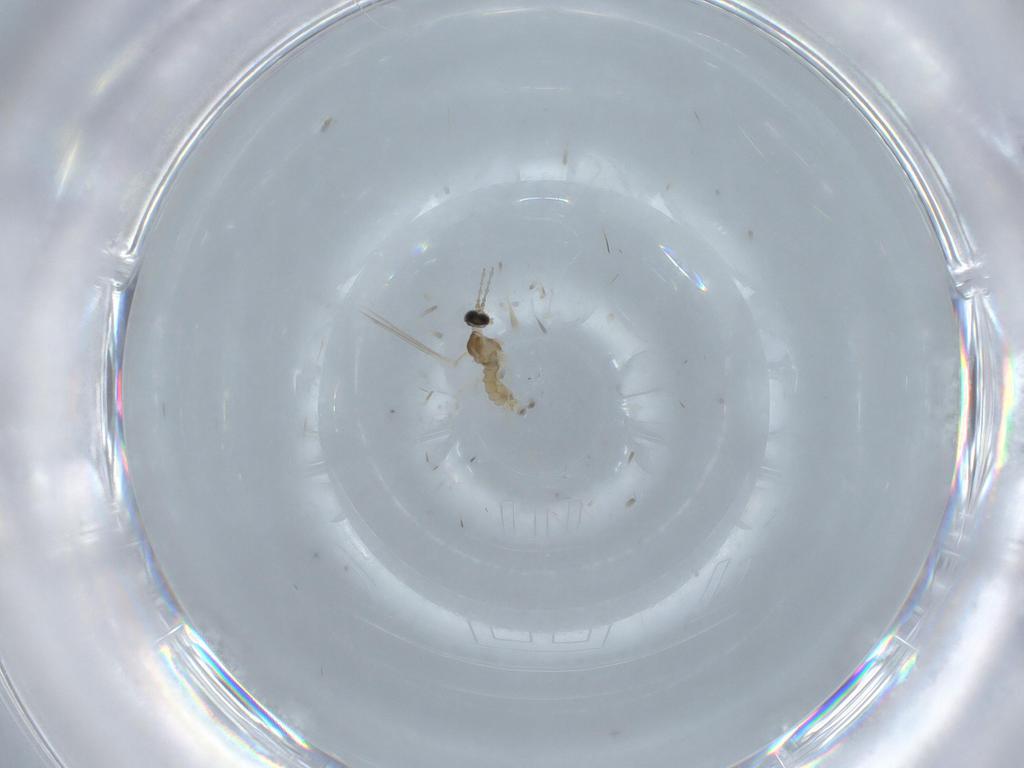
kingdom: Animalia
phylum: Arthropoda
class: Insecta
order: Diptera
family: Cecidomyiidae
